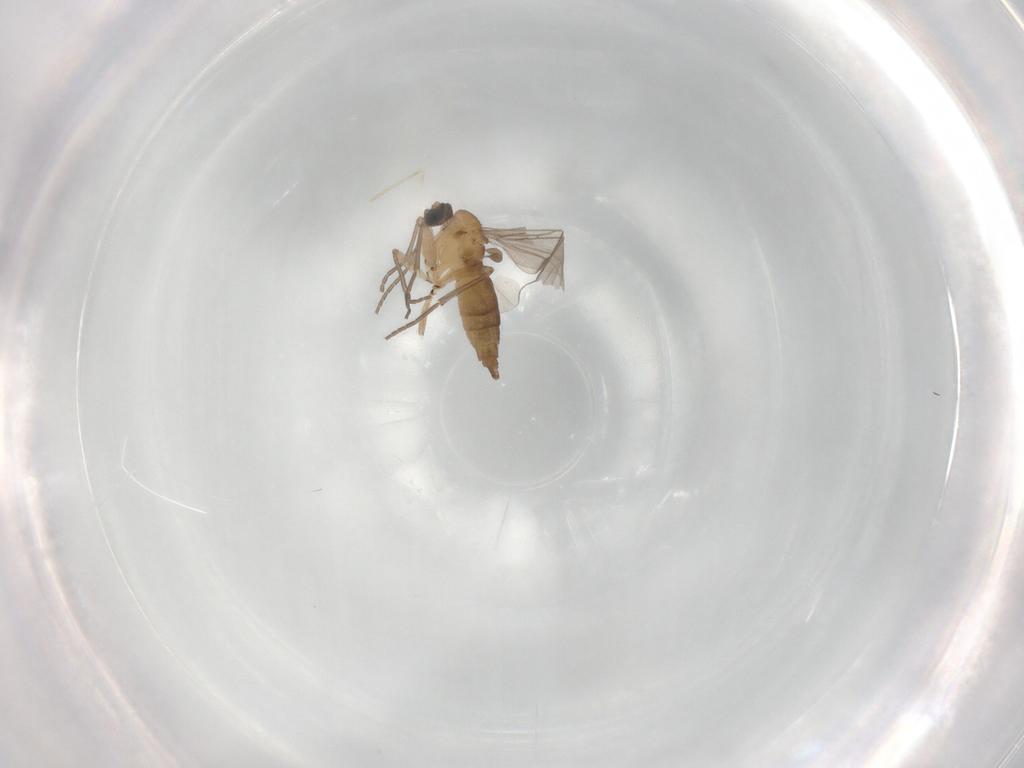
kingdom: Animalia
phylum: Arthropoda
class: Insecta
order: Diptera
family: Sciaridae
